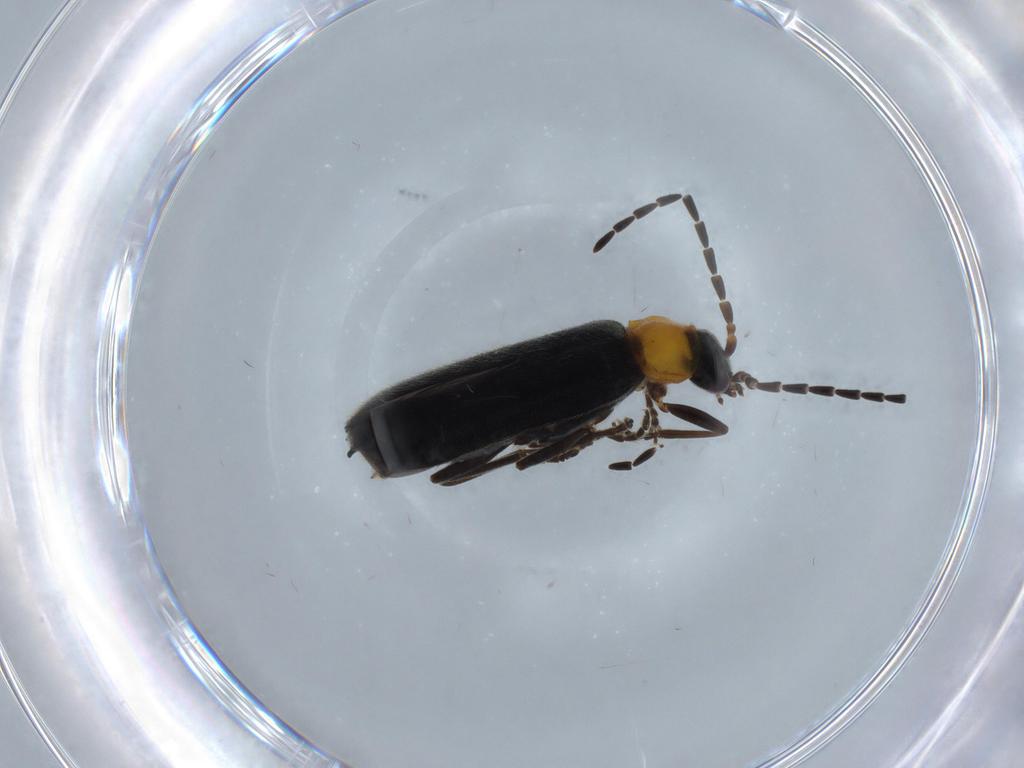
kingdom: Animalia
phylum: Arthropoda
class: Insecta
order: Coleoptera
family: Cantharidae
